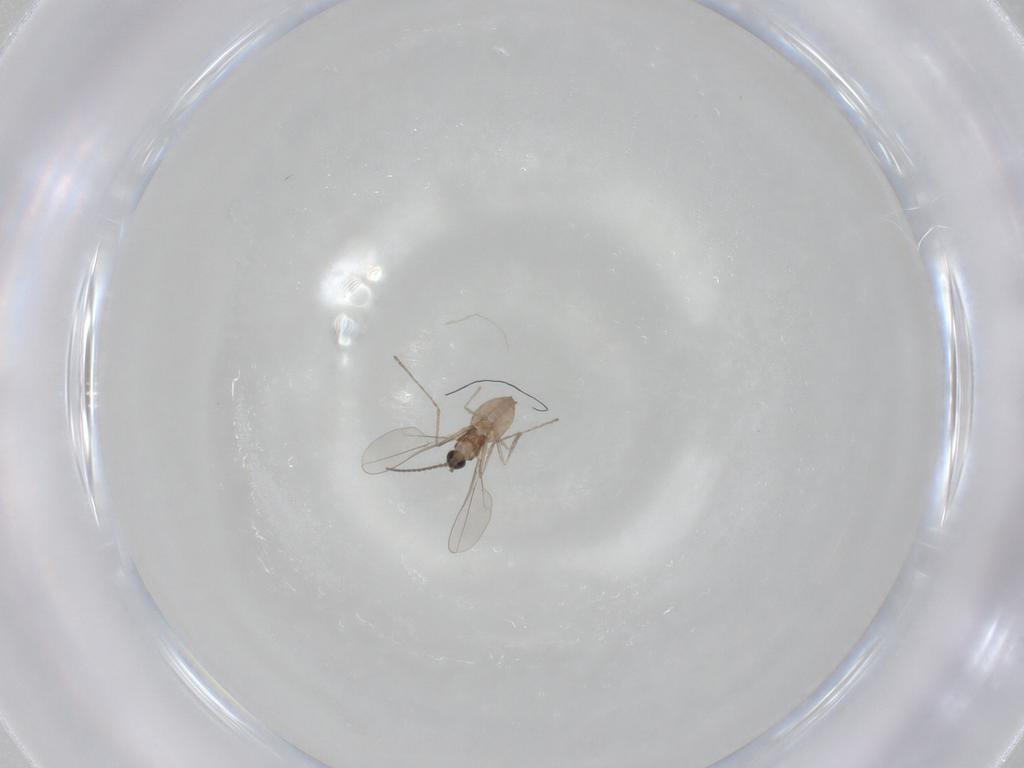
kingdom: Animalia
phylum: Arthropoda
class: Insecta
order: Diptera
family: Cecidomyiidae
